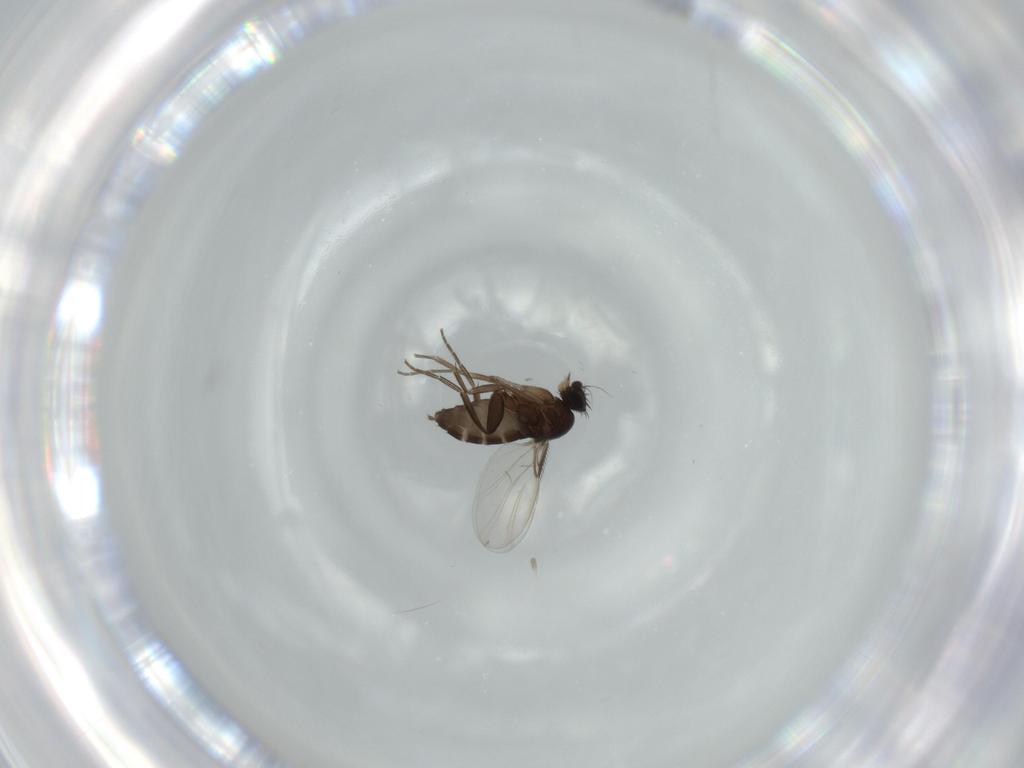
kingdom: Animalia
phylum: Arthropoda
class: Insecta
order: Diptera
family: Phoridae
